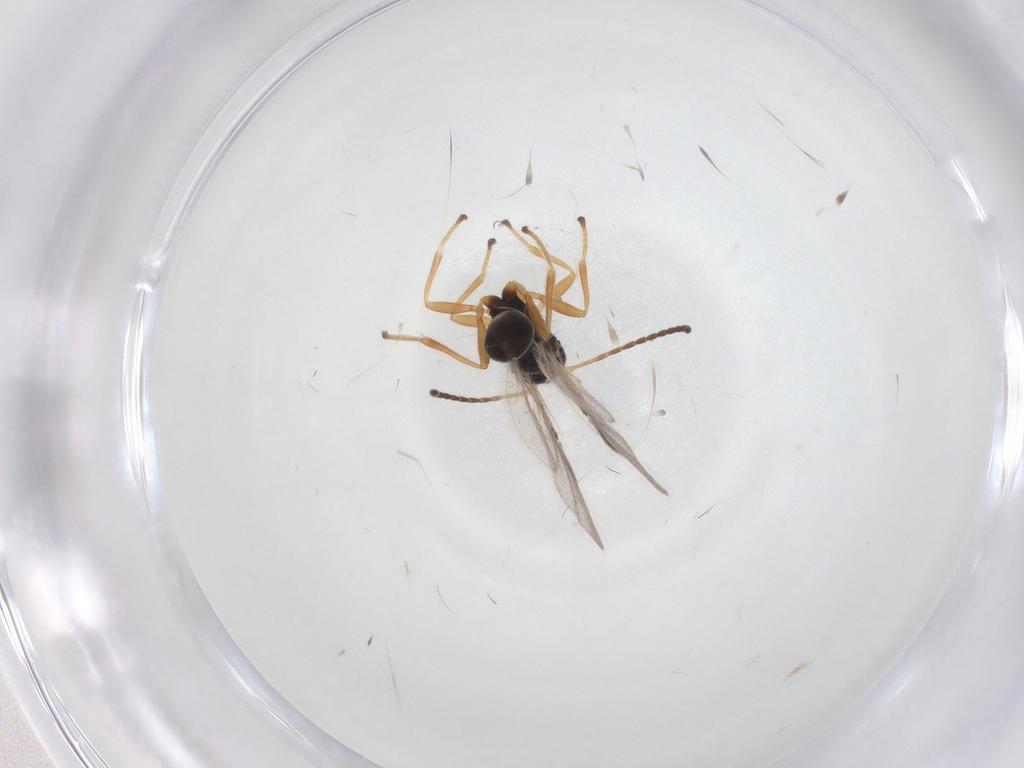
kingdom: Animalia
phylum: Arthropoda
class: Insecta
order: Hymenoptera
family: Braconidae
